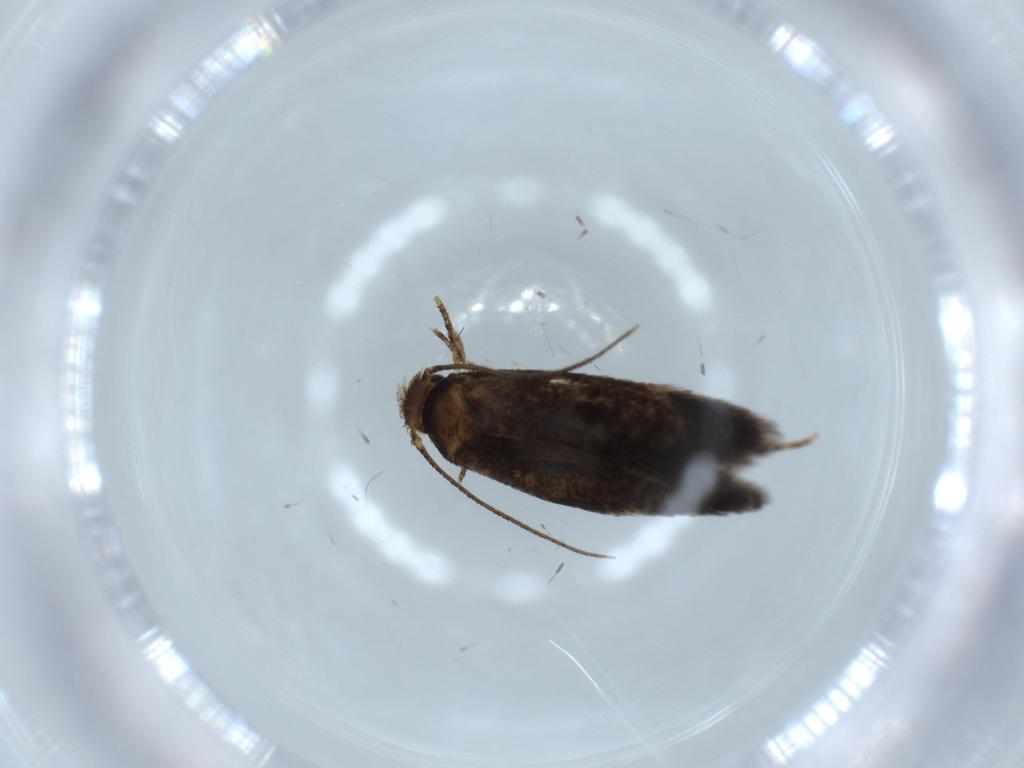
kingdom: Animalia
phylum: Arthropoda
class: Insecta
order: Lepidoptera
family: Gelechiidae
